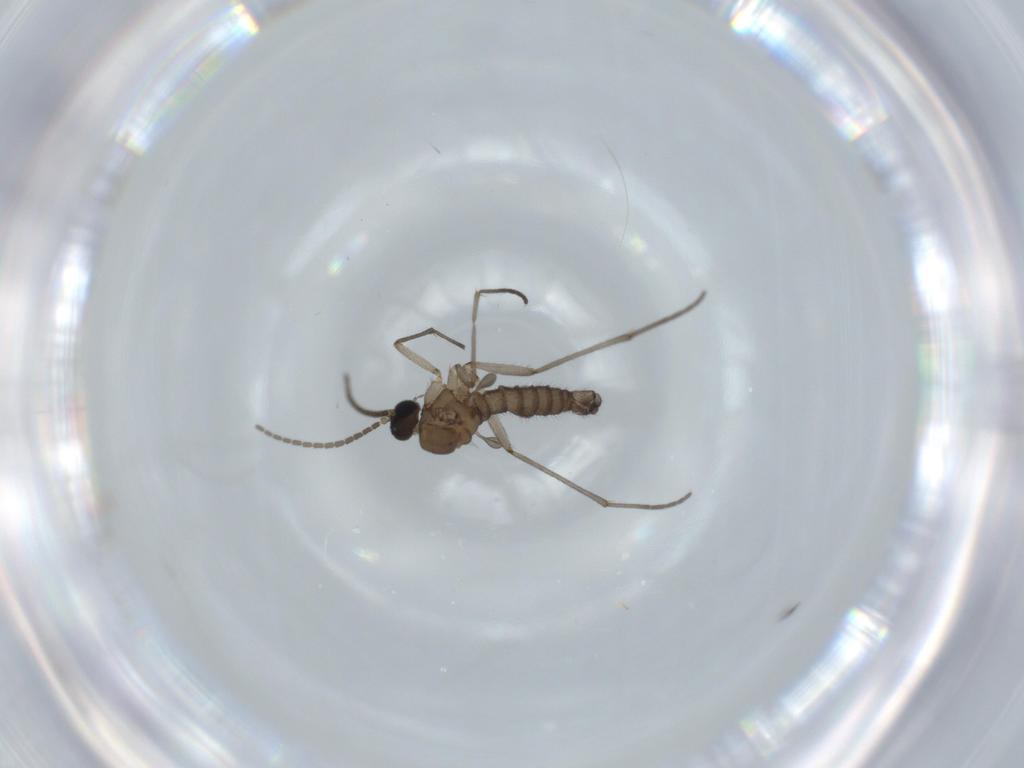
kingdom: Animalia
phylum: Arthropoda
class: Insecta
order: Diptera
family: Sciaridae
